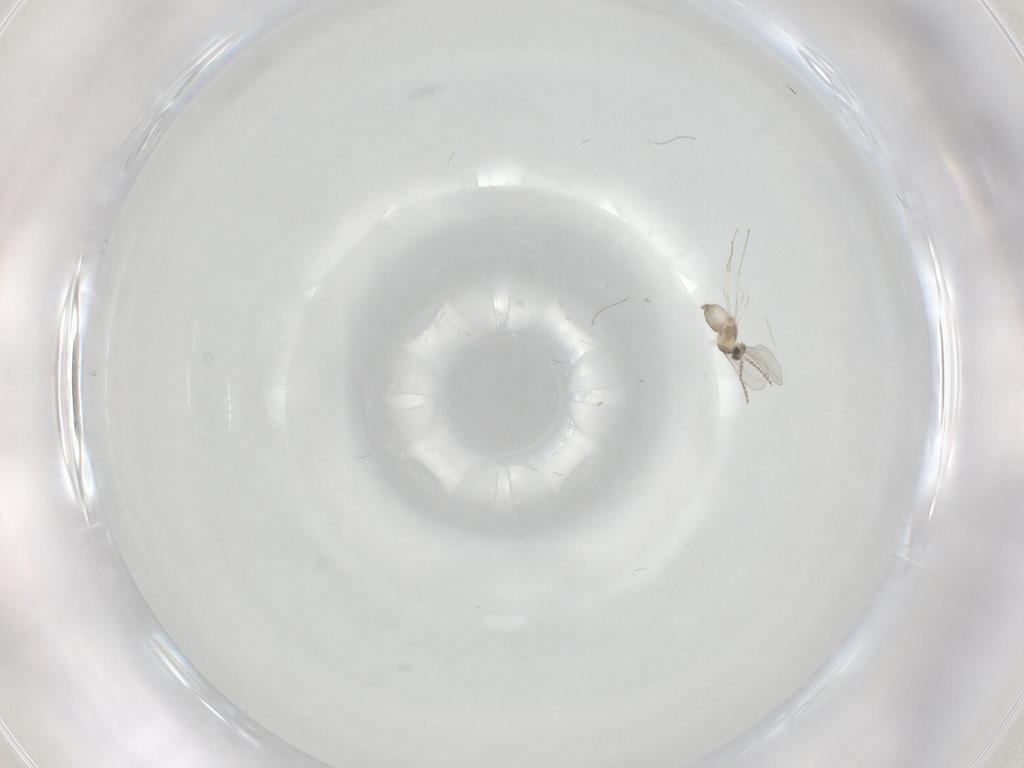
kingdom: Animalia
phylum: Arthropoda
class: Insecta
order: Diptera
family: Cecidomyiidae
